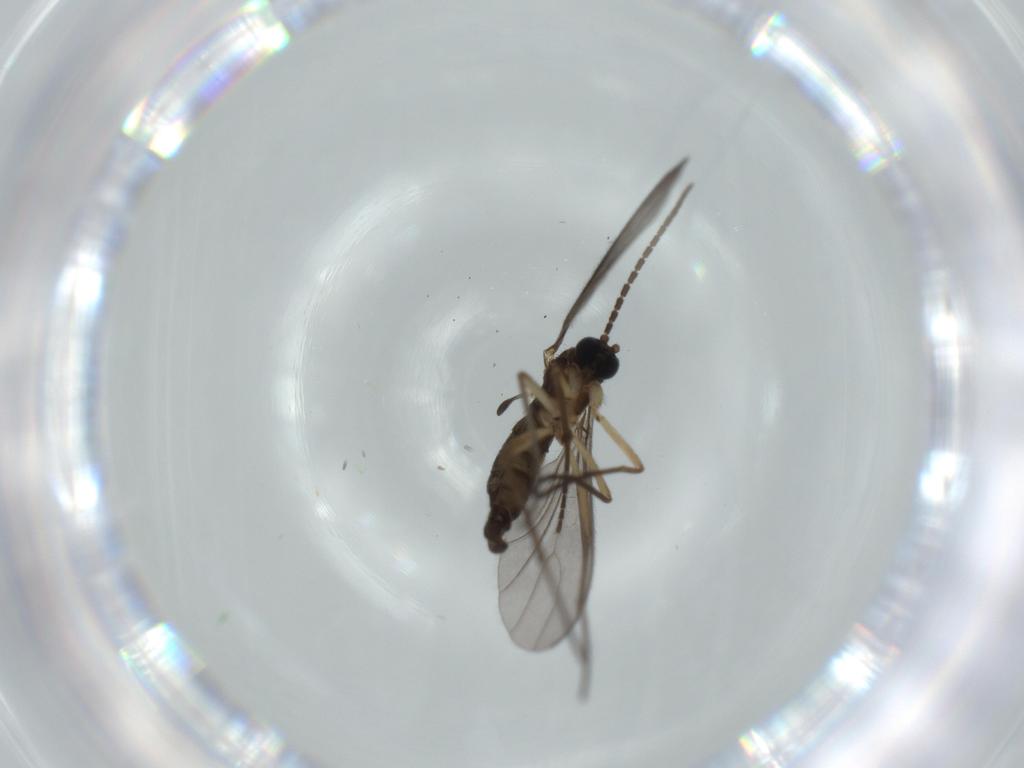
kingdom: Animalia
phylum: Arthropoda
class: Insecta
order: Diptera
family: Sciaridae
